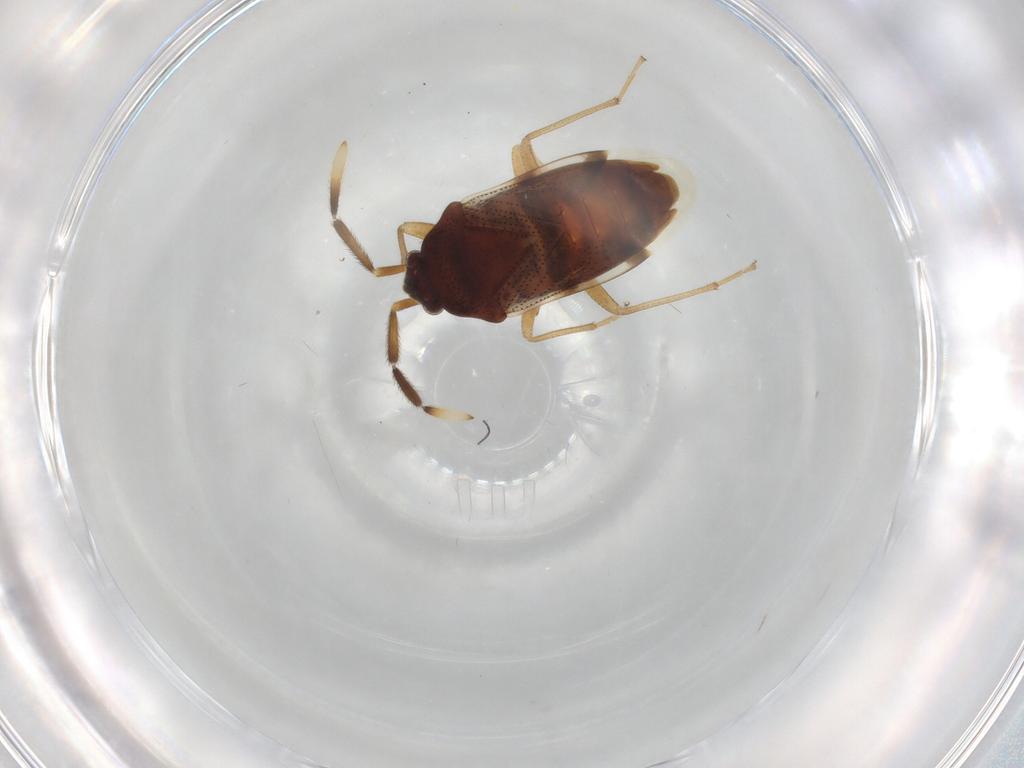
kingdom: Animalia
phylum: Arthropoda
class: Insecta
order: Hemiptera
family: Rhyparochromidae
